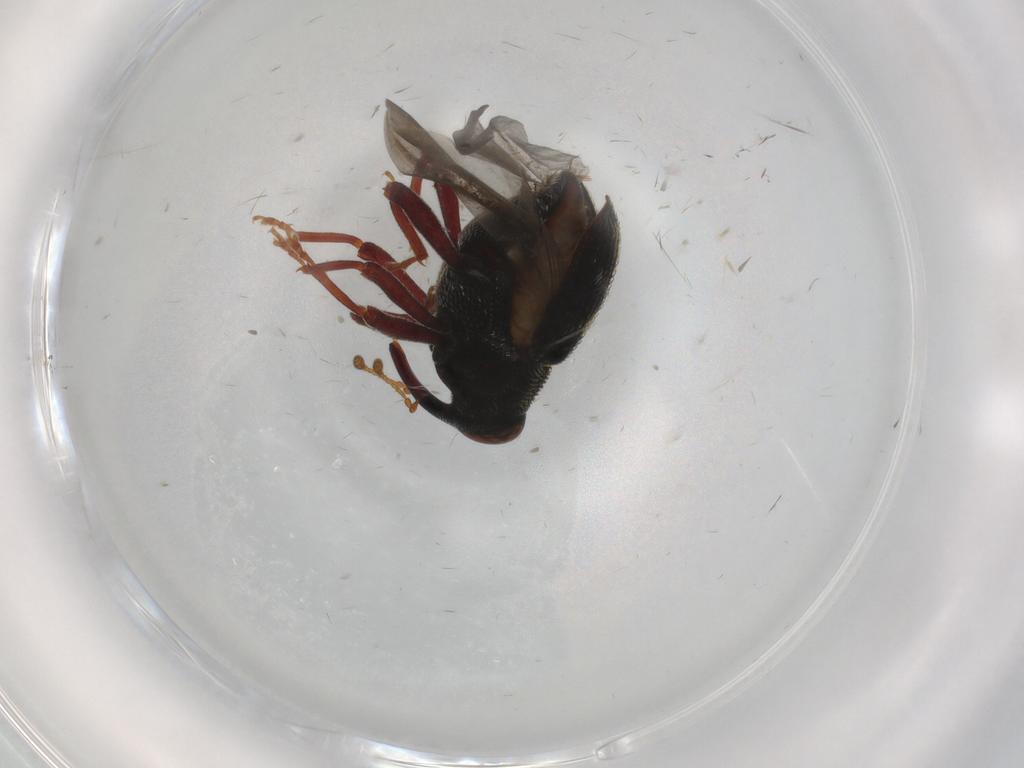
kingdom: Animalia
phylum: Arthropoda
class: Insecta
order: Coleoptera
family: Curculionidae
